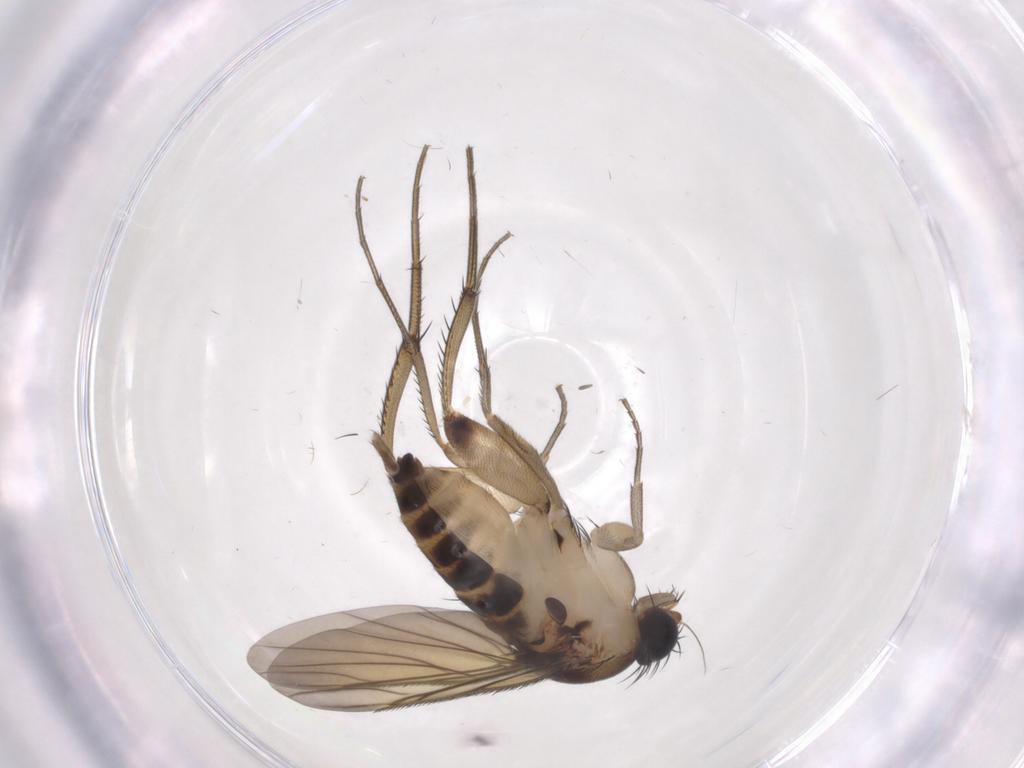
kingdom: Animalia
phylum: Arthropoda
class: Insecta
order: Diptera
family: Phoridae
